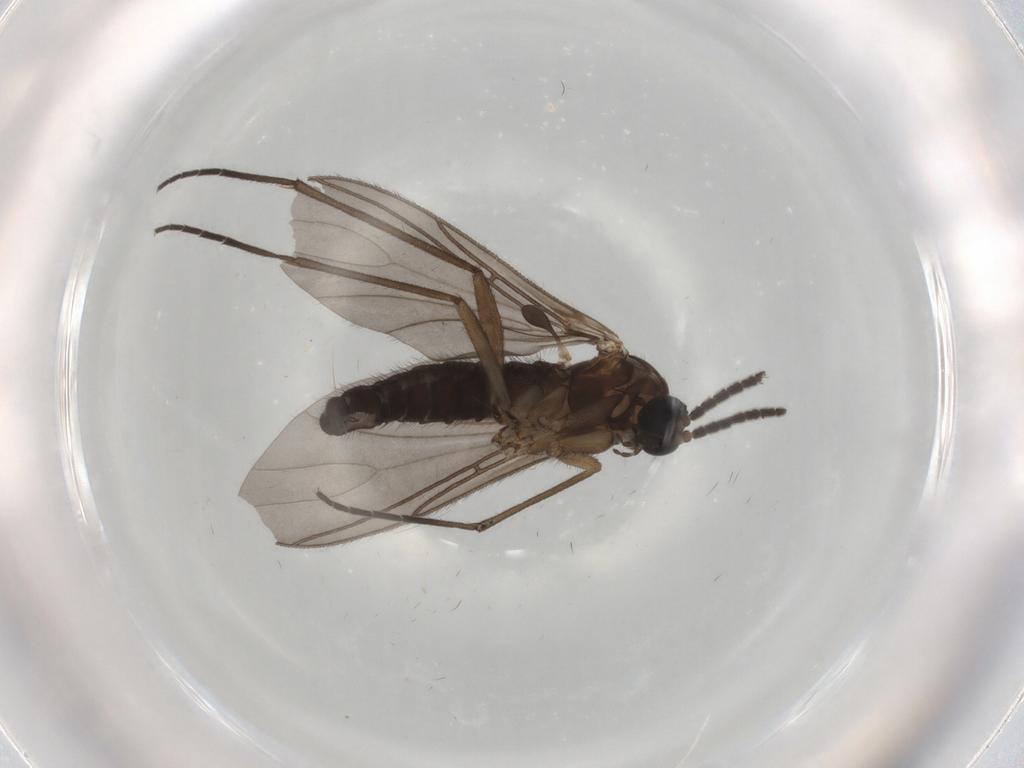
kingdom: Animalia
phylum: Arthropoda
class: Insecta
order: Diptera
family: Sciaridae
